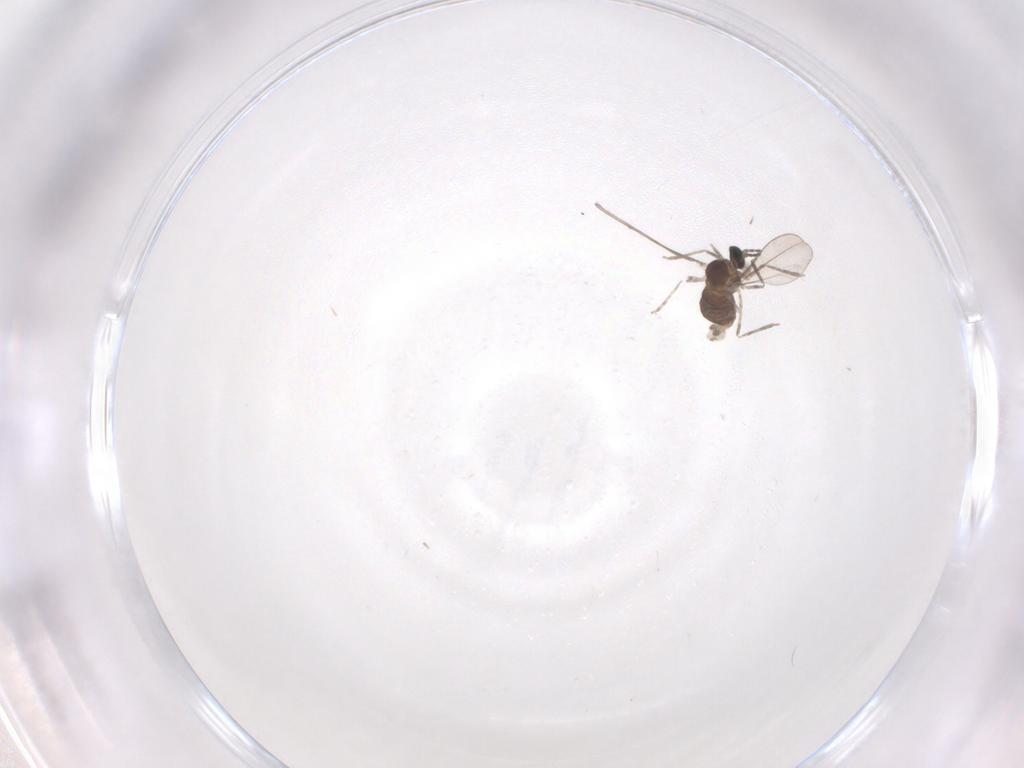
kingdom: Animalia
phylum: Arthropoda
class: Insecta
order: Diptera
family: Cecidomyiidae
